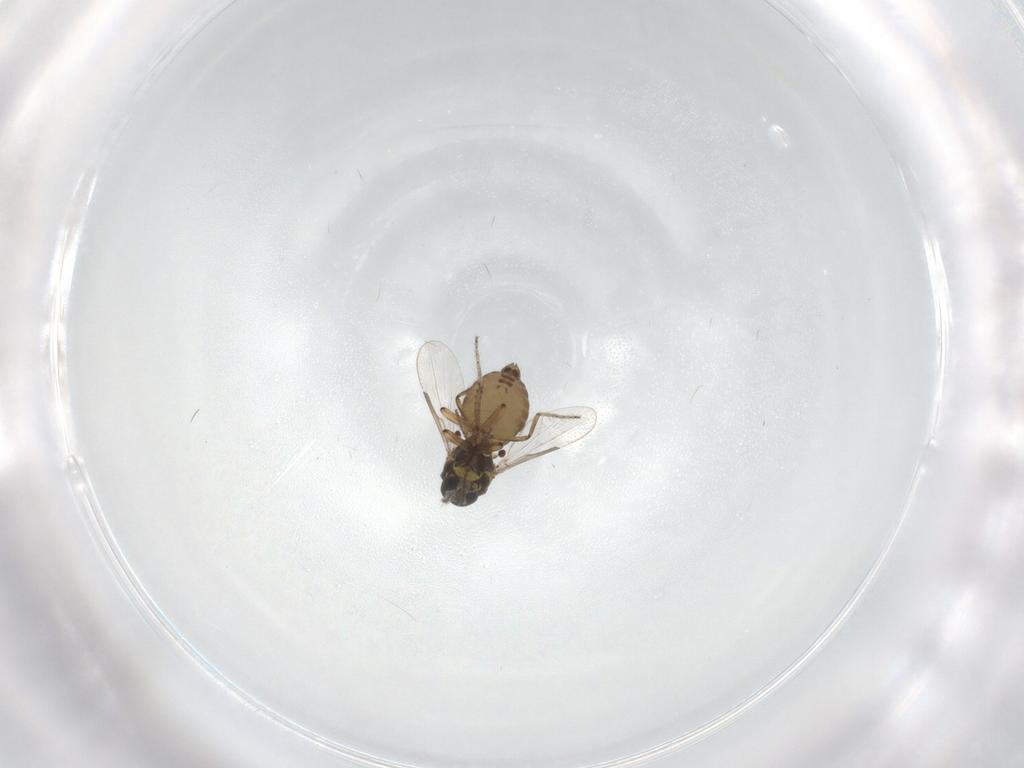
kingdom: Animalia
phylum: Arthropoda
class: Insecta
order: Diptera
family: Ceratopogonidae
